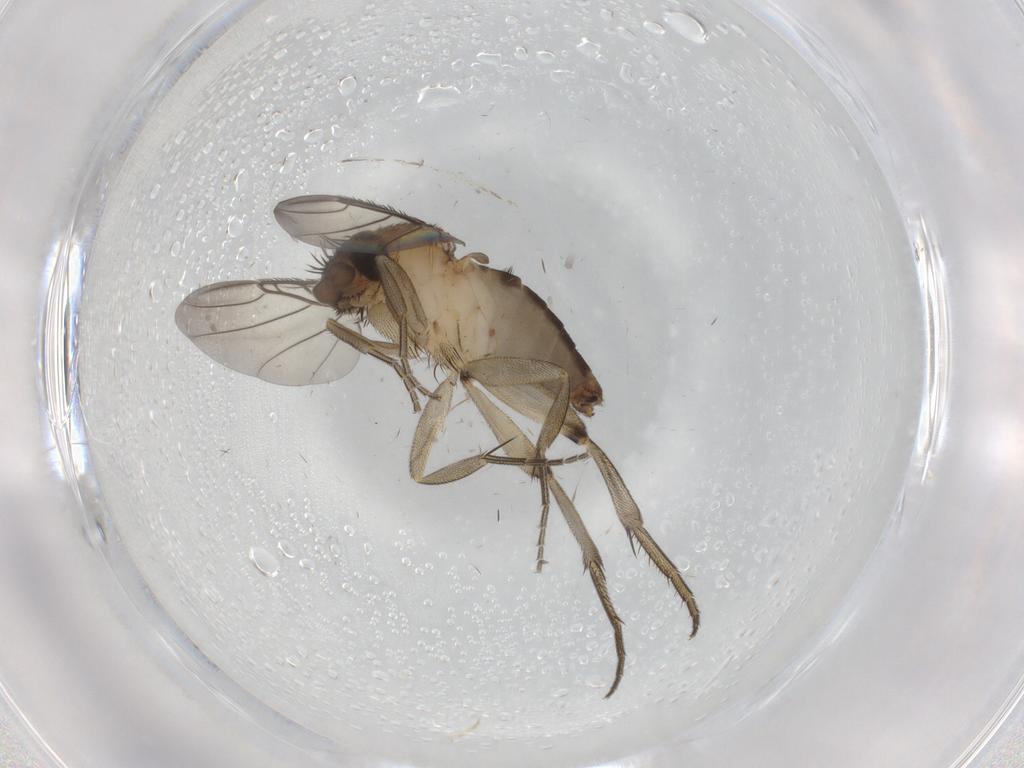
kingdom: Animalia
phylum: Arthropoda
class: Insecta
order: Diptera
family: Phoridae
